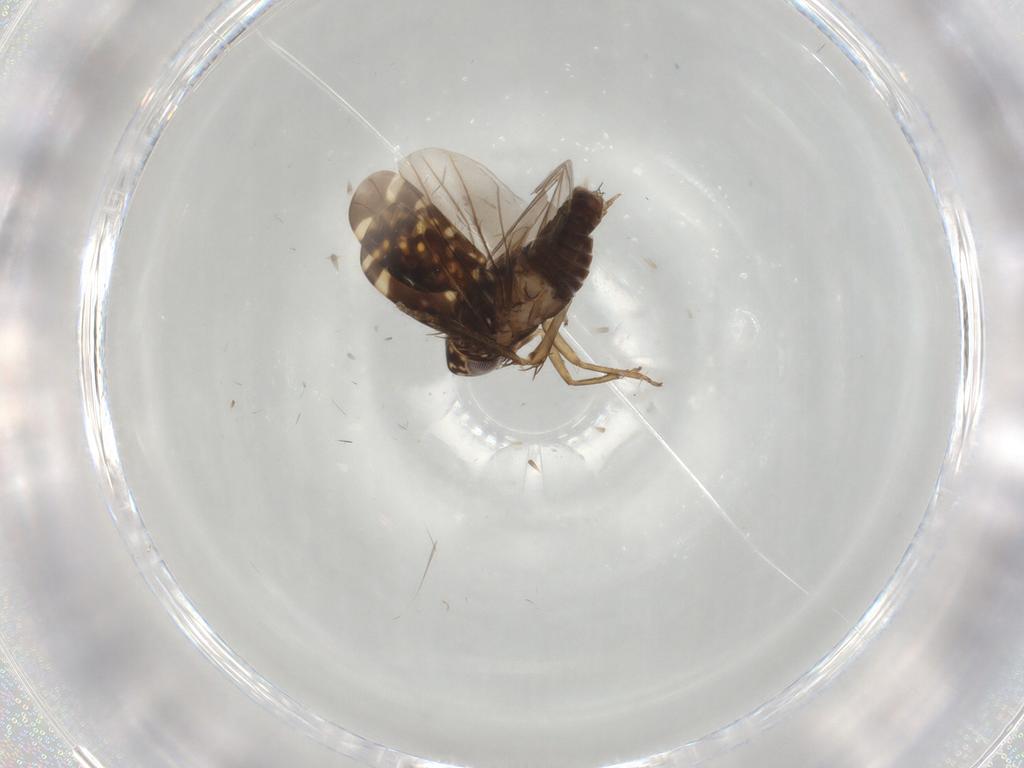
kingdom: Animalia
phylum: Arthropoda
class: Insecta
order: Hemiptera
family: Cicadellidae
